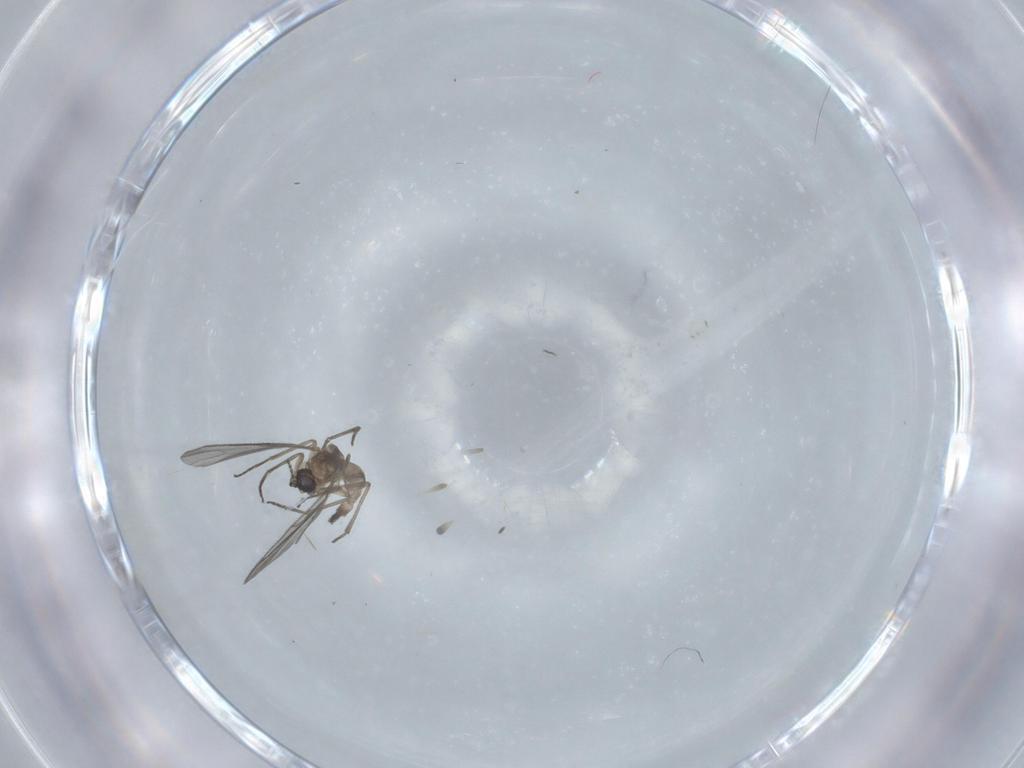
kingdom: Animalia
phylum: Arthropoda
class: Insecta
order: Diptera
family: Sciaridae
